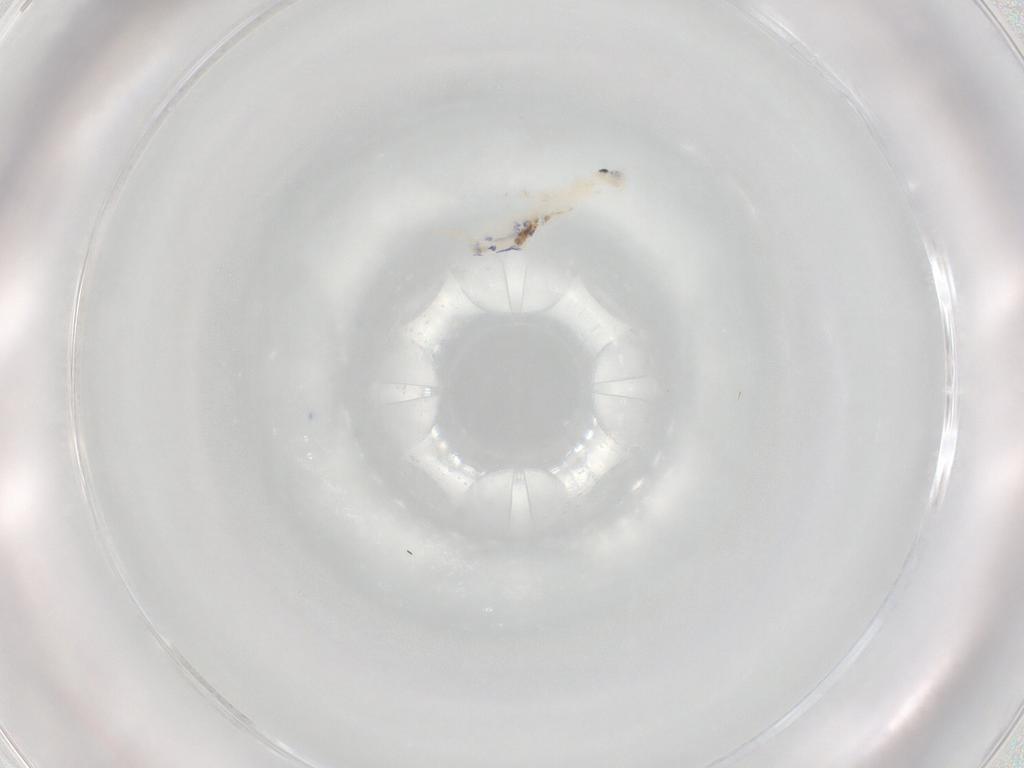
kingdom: Animalia
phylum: Arthropoda
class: Collembola
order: Entomobryomorpha
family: Entomobryidae
